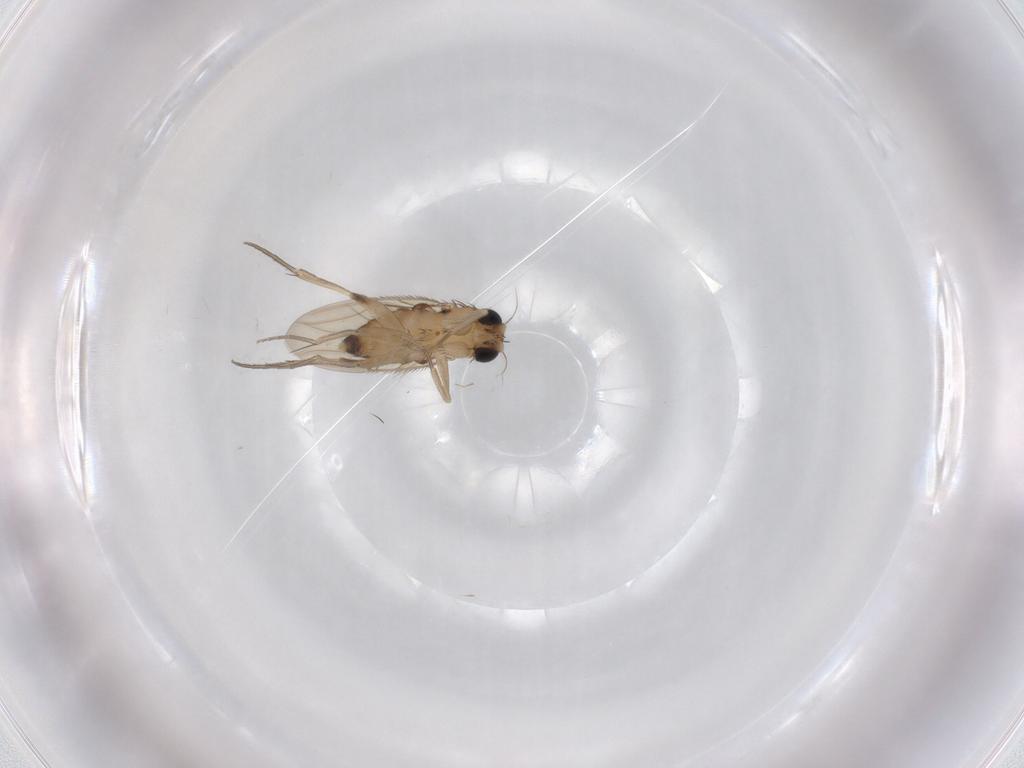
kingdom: Animalia
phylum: Arthropoda
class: Insecta
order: Diptera
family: Phoridae
